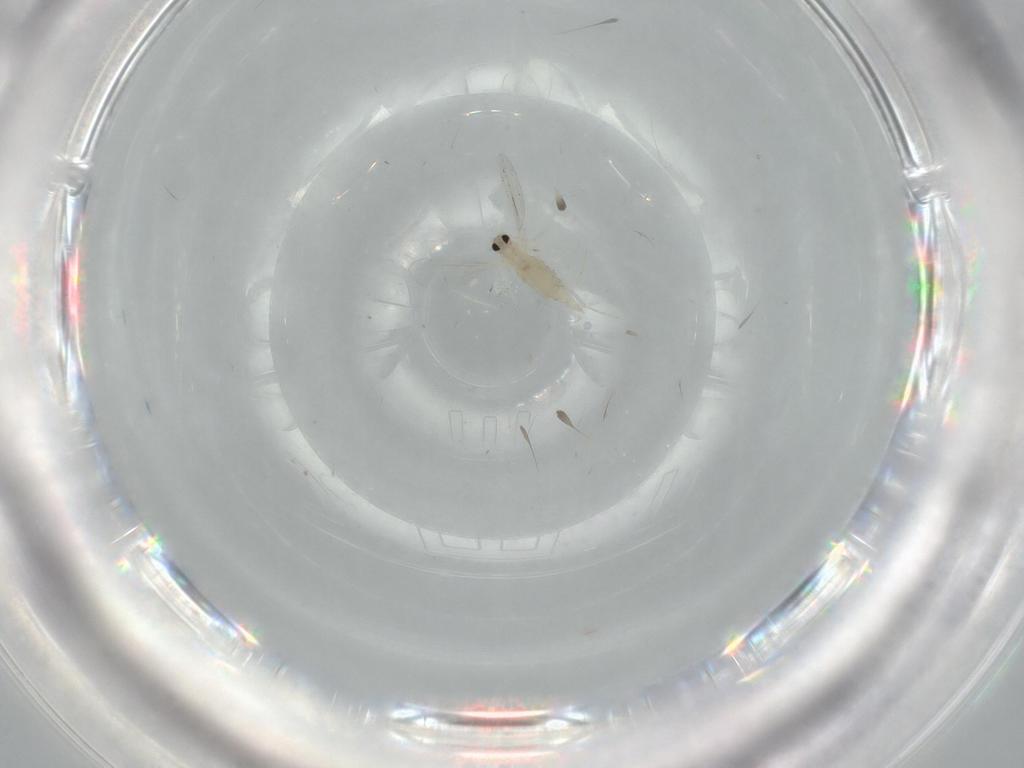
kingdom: Animalia
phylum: Arthropoda
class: Insecta
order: Diptera
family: Cecidomyiidae
